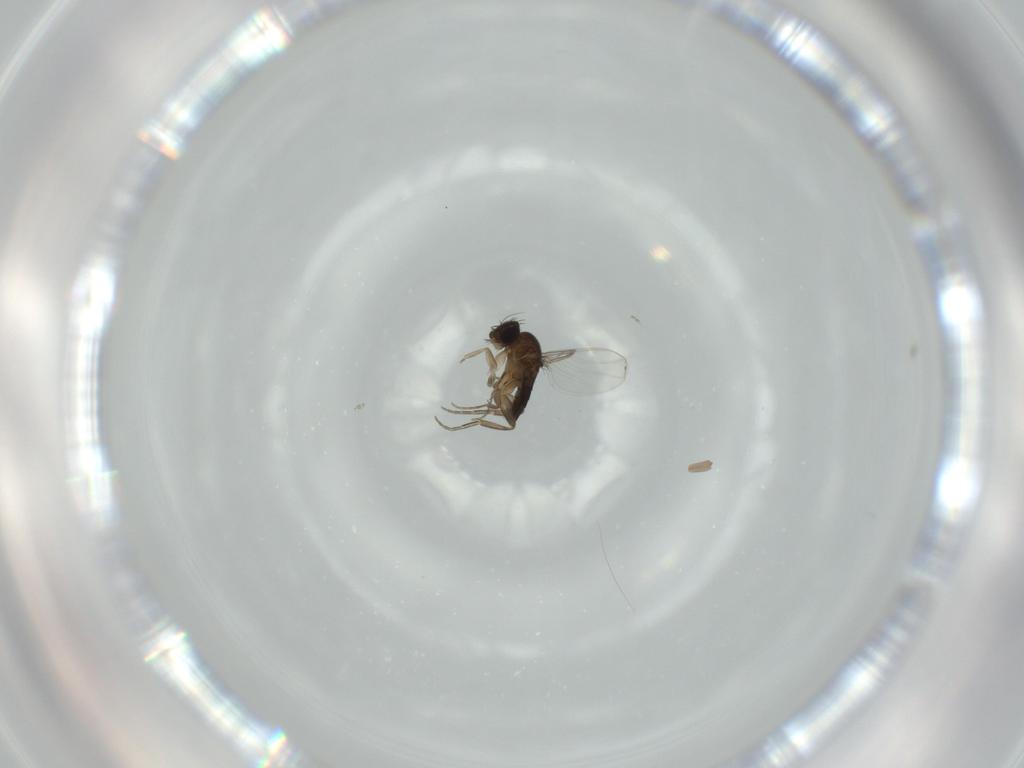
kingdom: Animalia
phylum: Arthropoda
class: Insecta
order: Diptera
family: Phoridae
